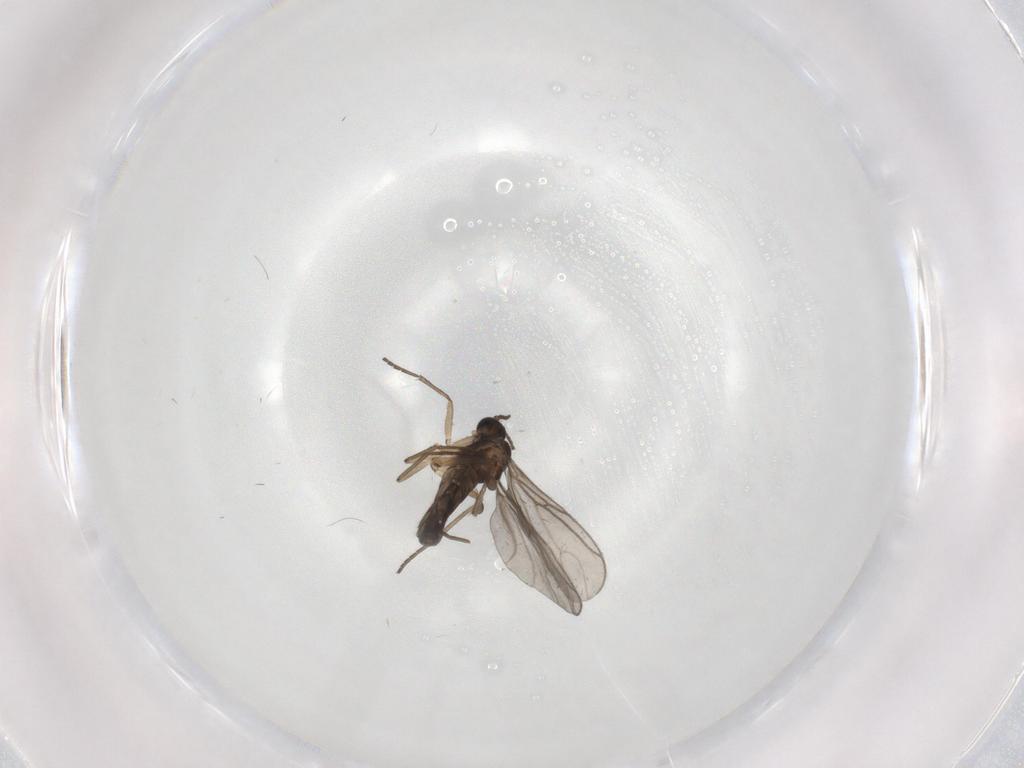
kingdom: Animalia
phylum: Arthropoda
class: Insecta
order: Diptera
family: Sciaridae
